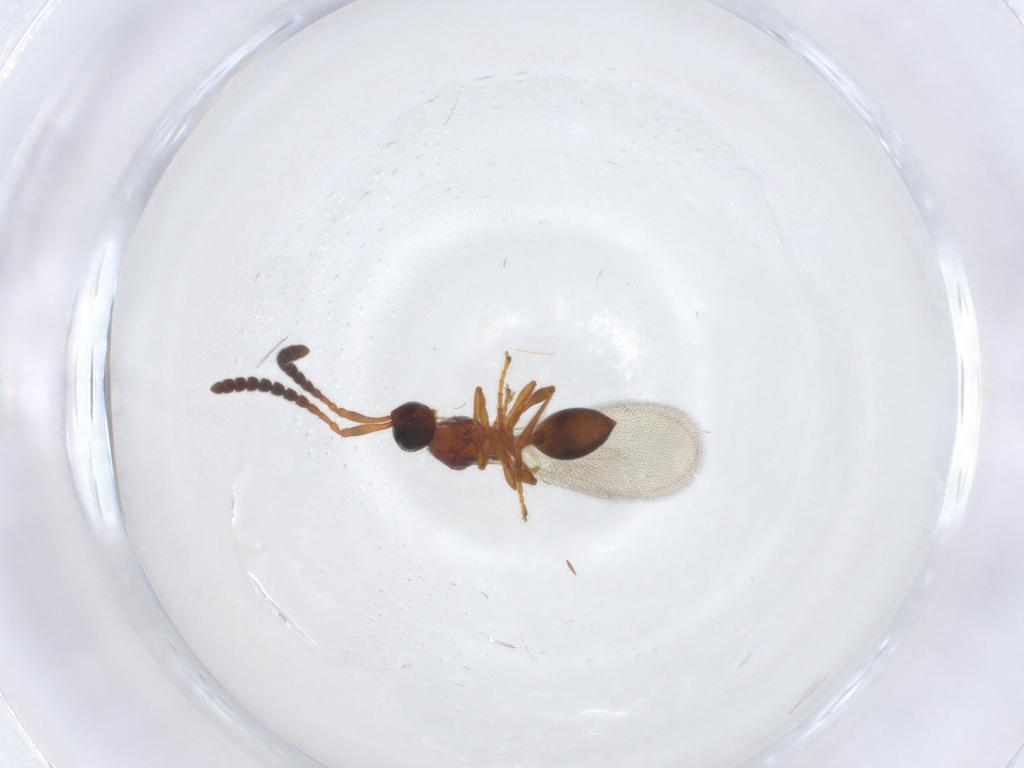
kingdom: Animalia
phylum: Arthropoda
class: Insecta
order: Hymenoptera
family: Diapriidae
